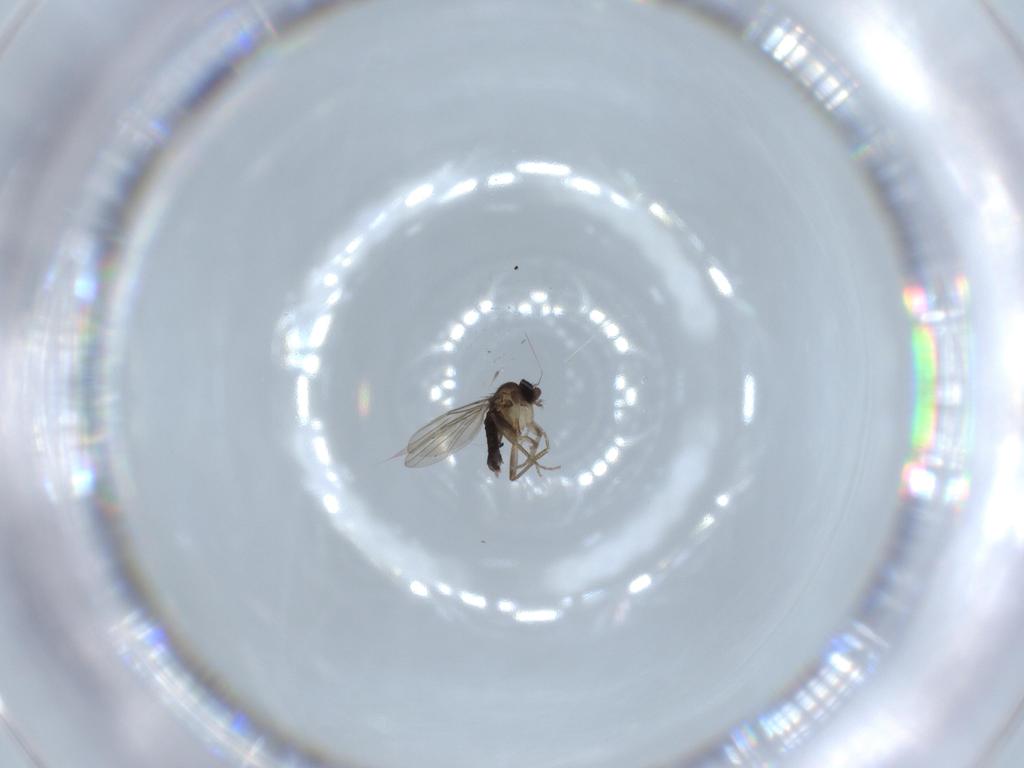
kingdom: Animalia
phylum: Arthropoda
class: Insecta
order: Diptera
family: Phoridae
